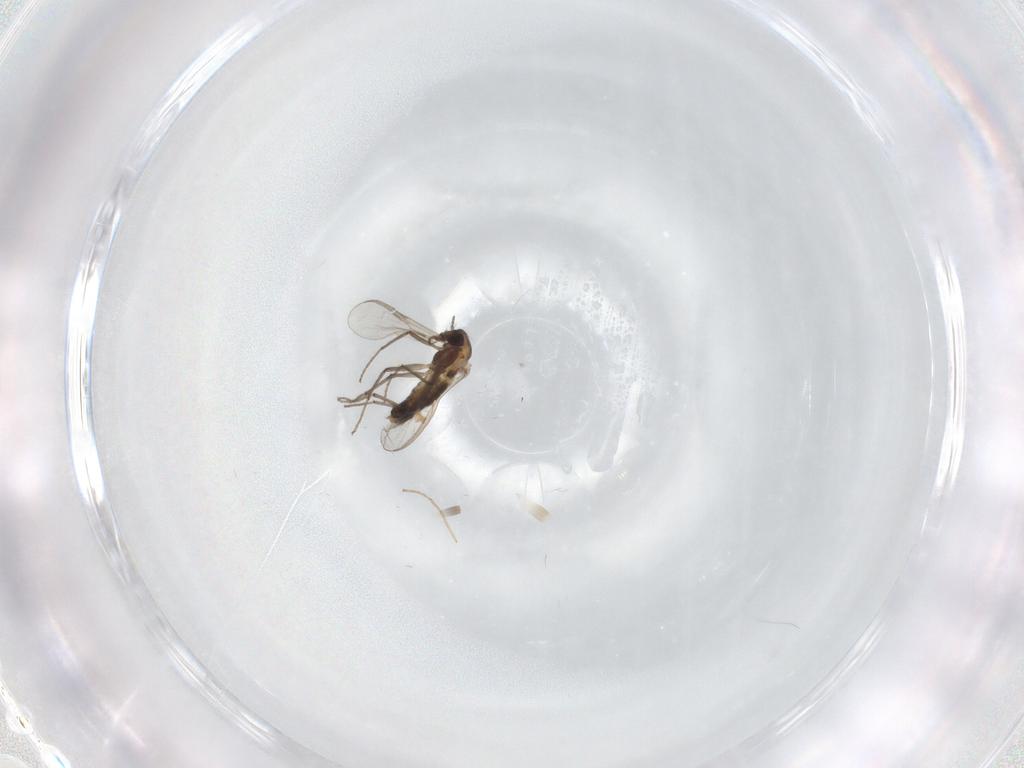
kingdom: Animalia
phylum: Arthropoda
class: Insecta
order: Diptera
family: Chironomidae
